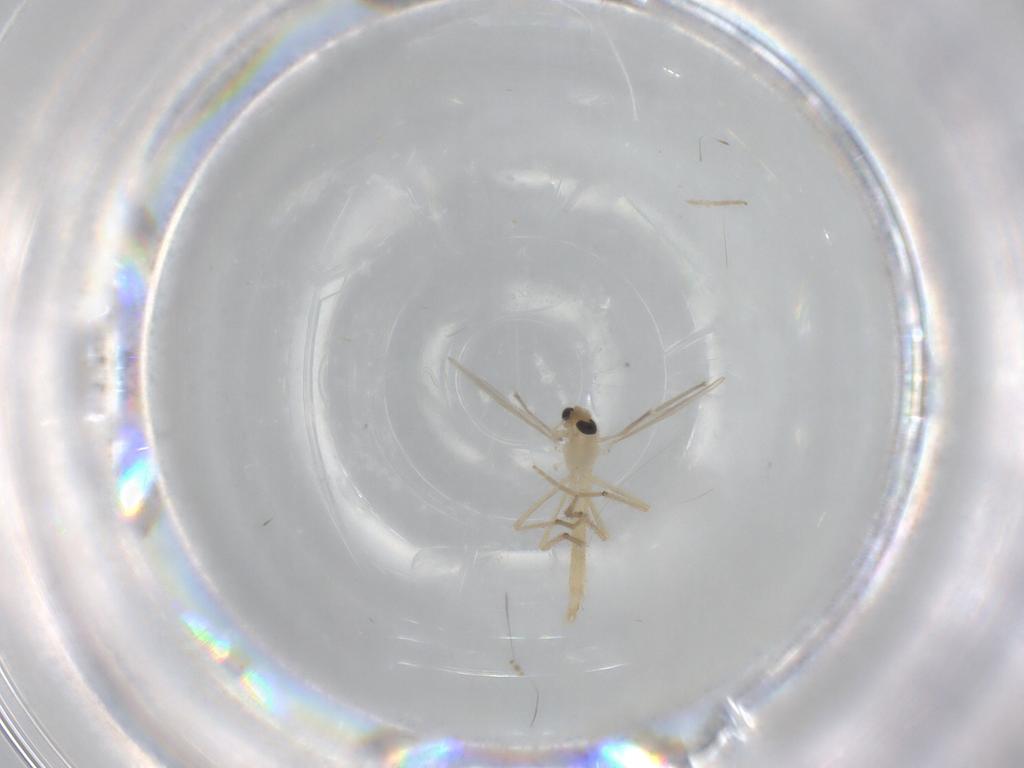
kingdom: Animalia
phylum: Arthropoda
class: Insecta
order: Diptera
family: Chironomidae
